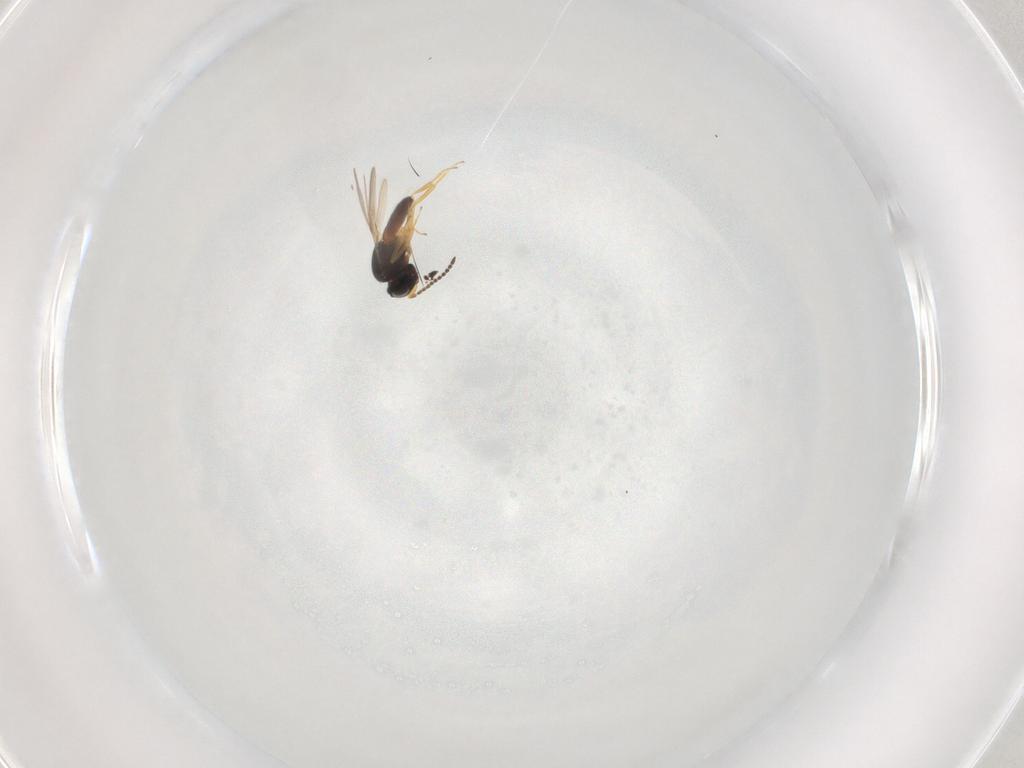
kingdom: Animalia
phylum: Arthropoda
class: Insecta
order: Hymenoptera
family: Scelionidae
